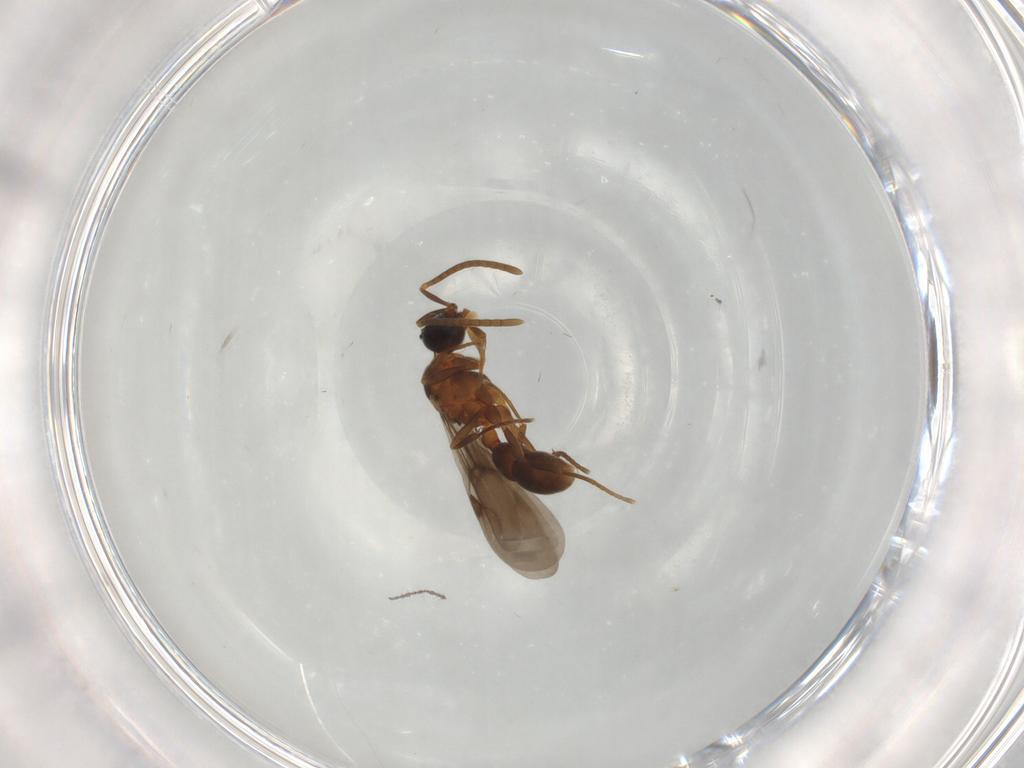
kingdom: Animalia
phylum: Arthropoda
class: Insecta
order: Hymenoptera
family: Formicidae
